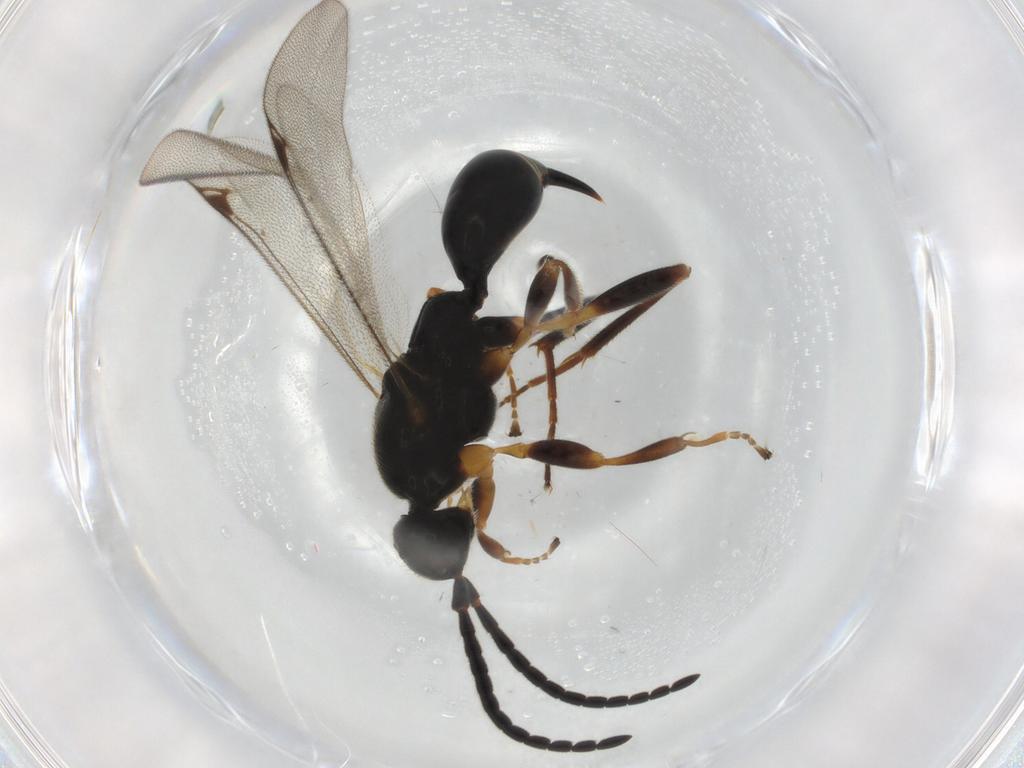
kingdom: Animalia
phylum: Arthropoda
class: Insecta
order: Hymenoptera
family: Proctotrupidae
